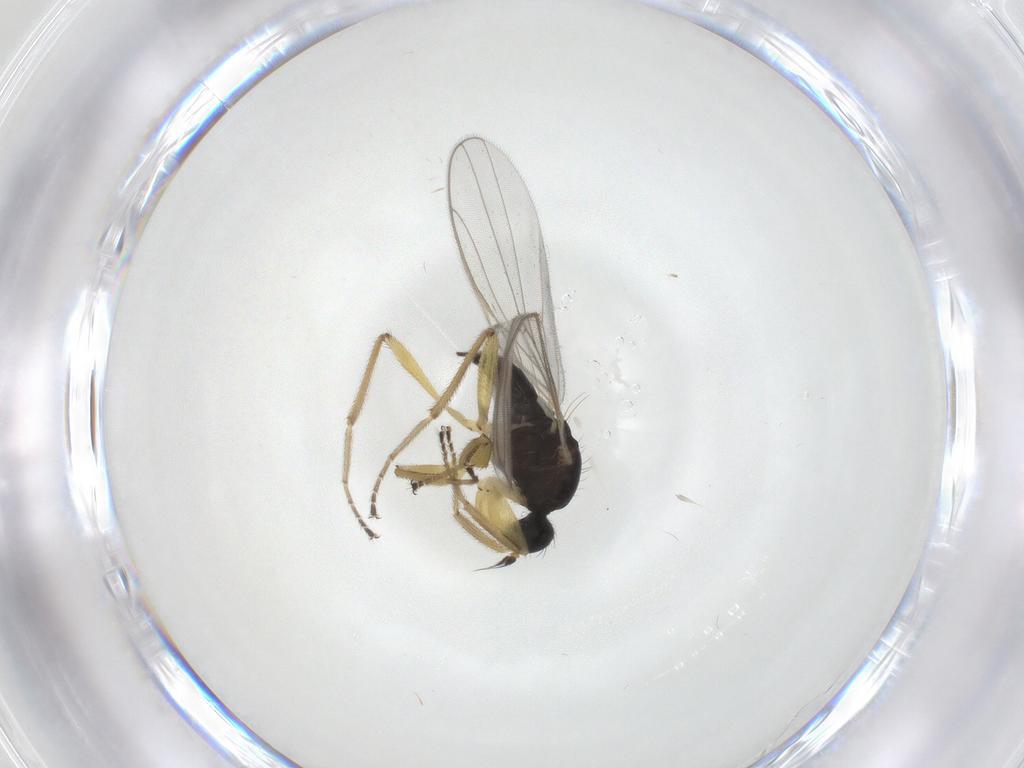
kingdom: Animalia
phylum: Arthropoda
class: Insecta
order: Diptera
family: Hybotidae
